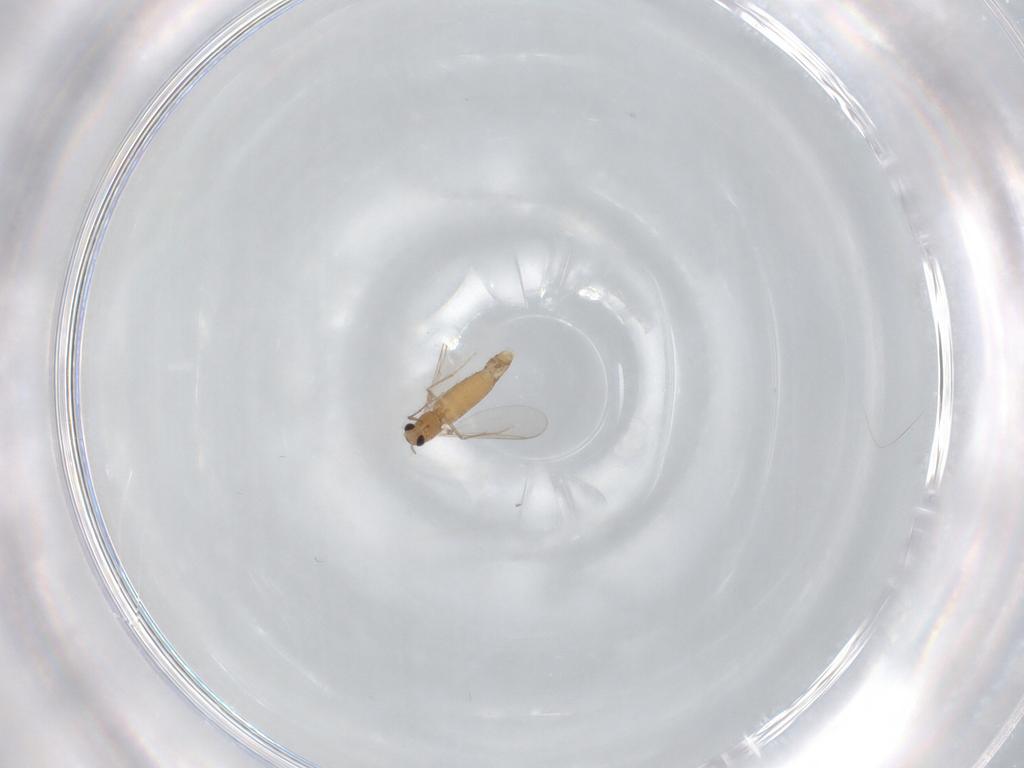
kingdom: Animalia
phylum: Arthropoda
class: Insecta
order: Diptera
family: Chironomidae
